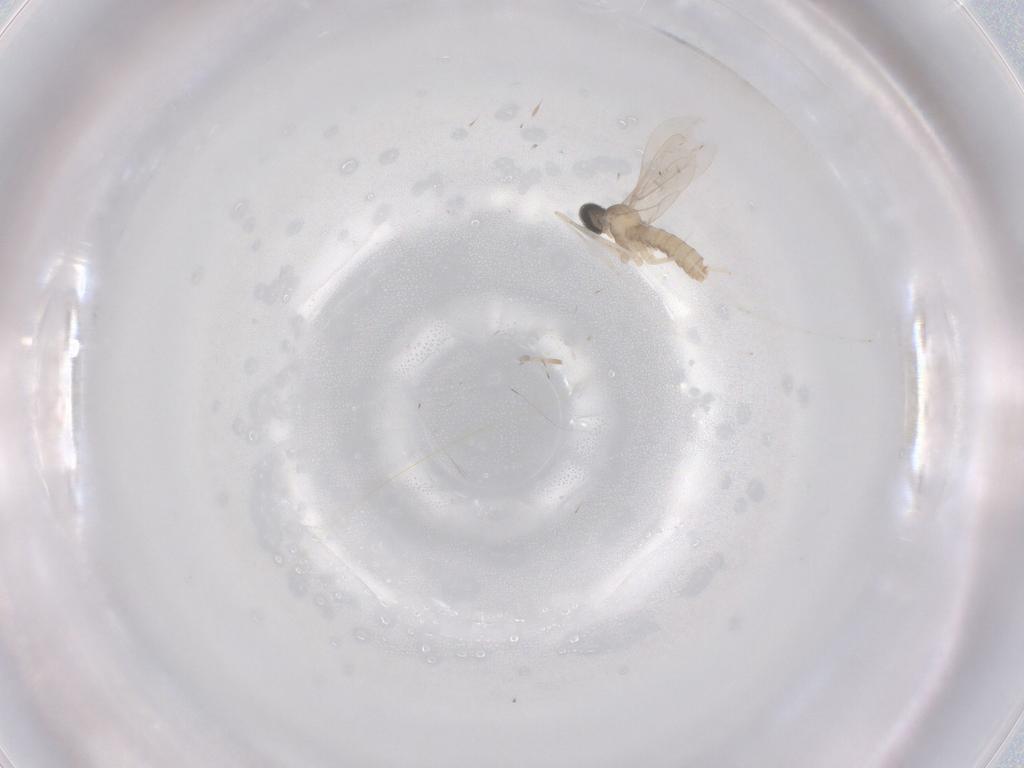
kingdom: Animalia
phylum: Arthropoda
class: Insecta
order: Diptera
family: Cecidomyiidae
